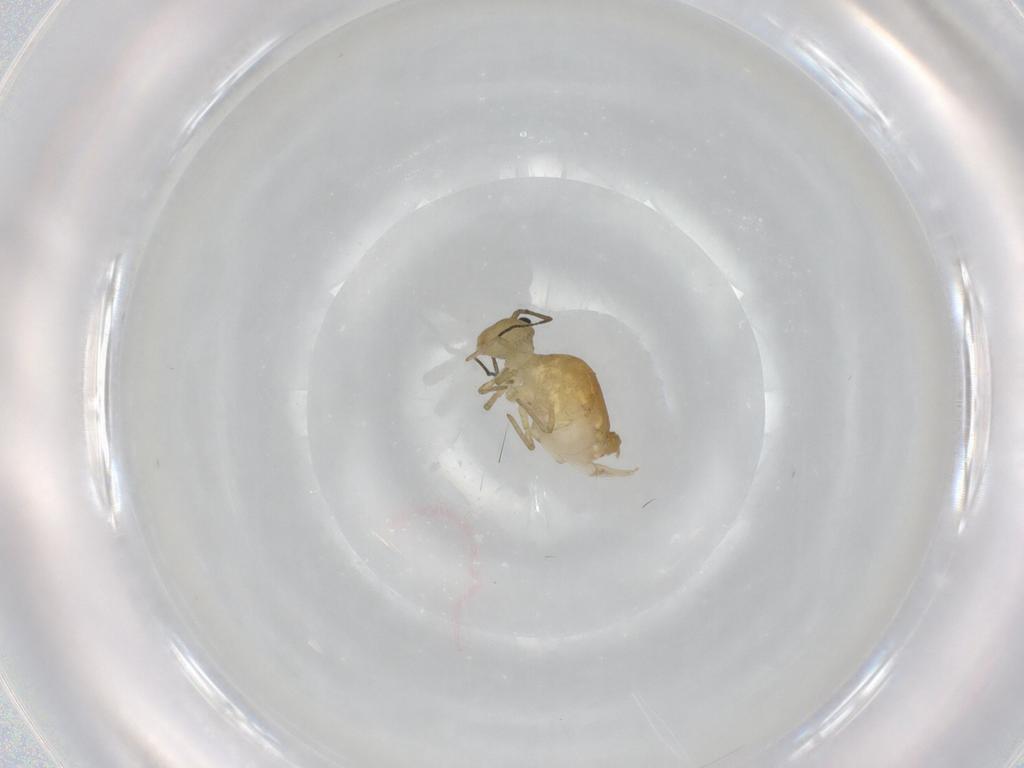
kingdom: Animalia
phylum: Arthropoda
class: Collembola
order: Symphypleona
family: Sminthuridae
